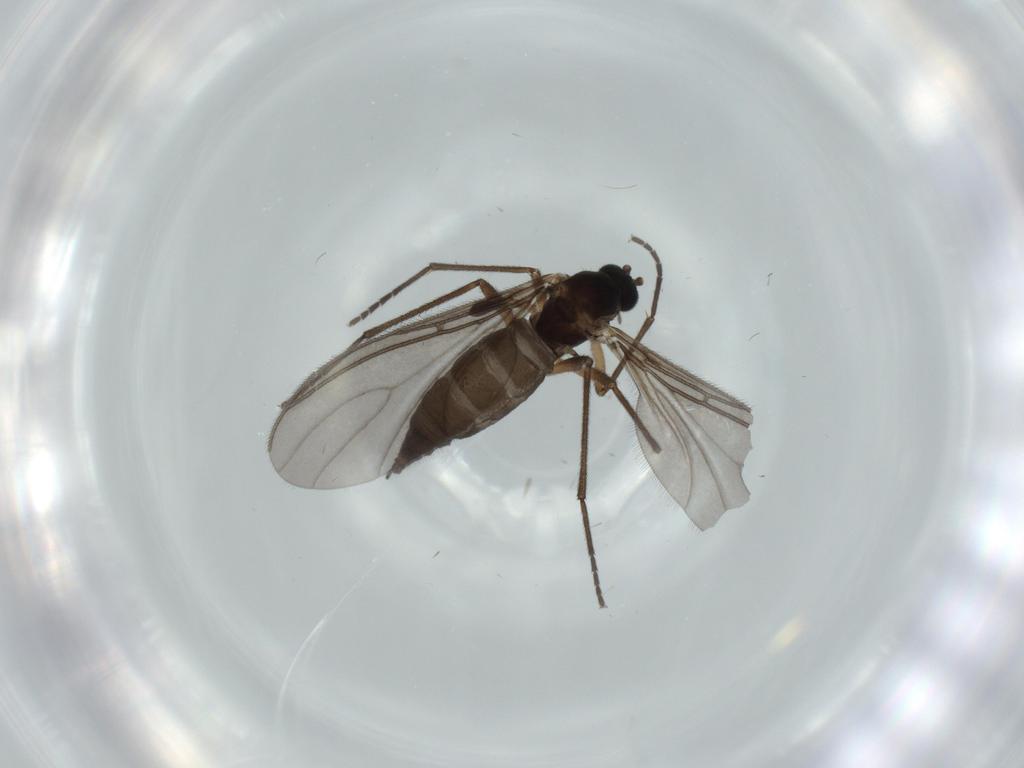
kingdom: Animalia
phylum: Arthropoda
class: Insecta
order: Diptera
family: Sciaridae
